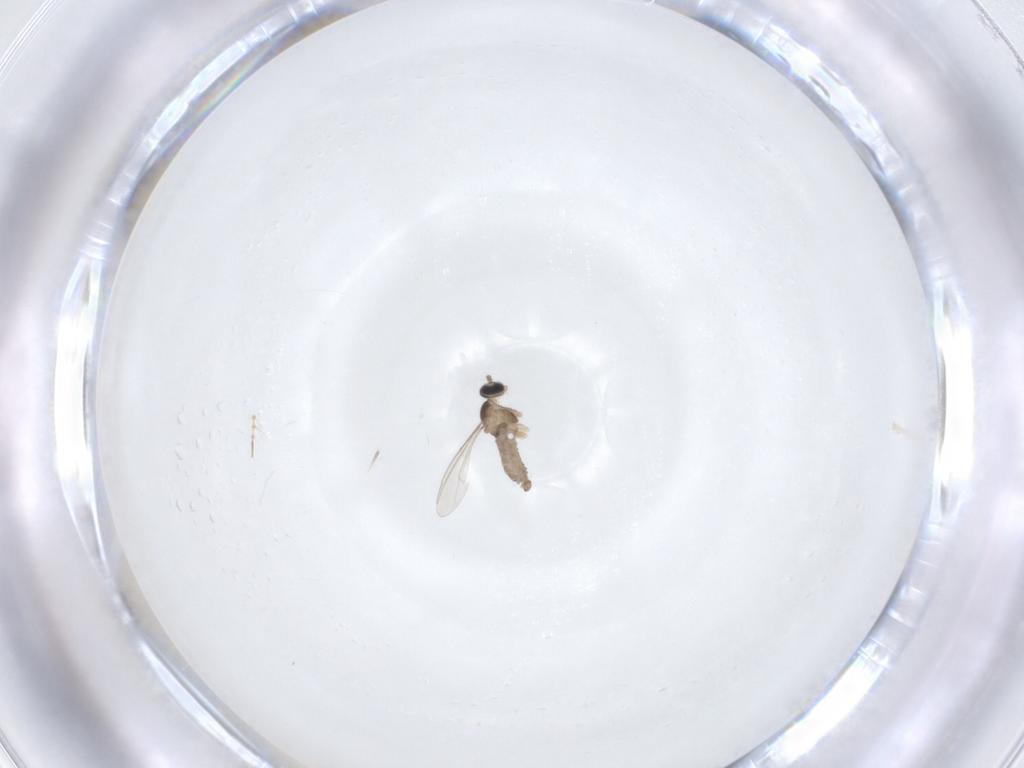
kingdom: Animalia
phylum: Arthropoda
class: Insecta
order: Diptera
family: Cecidomyiidae
